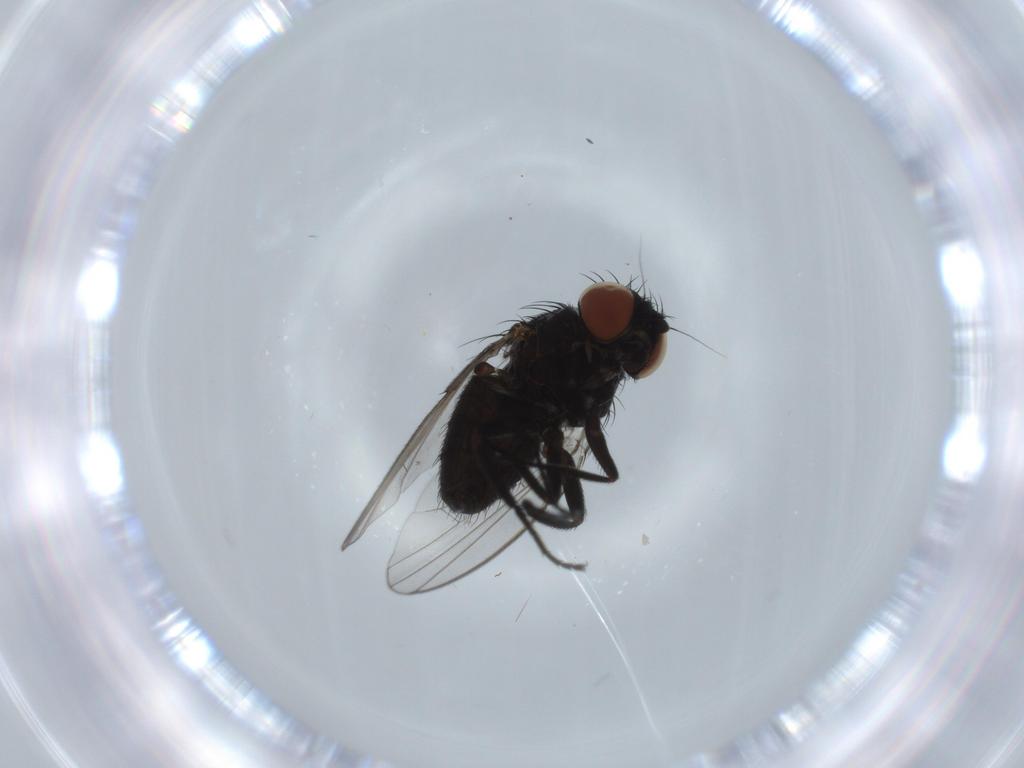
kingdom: Animalia
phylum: Arthropoda
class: Insecta
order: Diptera
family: Milichiidae
